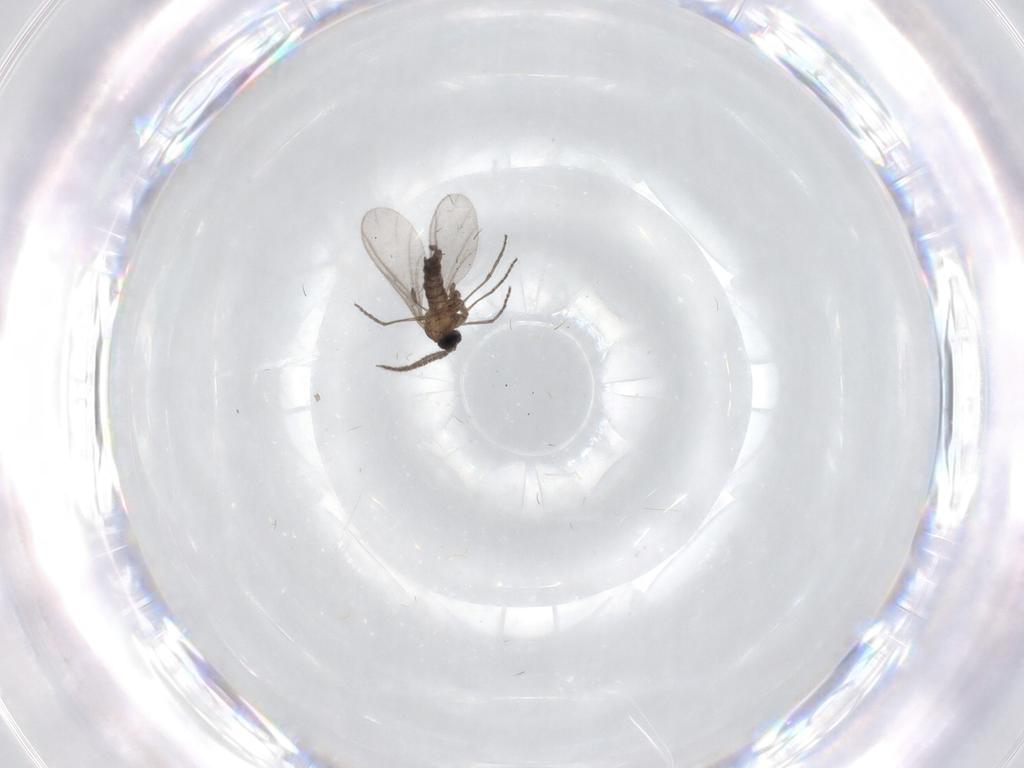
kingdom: Animalia
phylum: Arthropoda
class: Insecta
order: Diptera
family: Sciaridae
